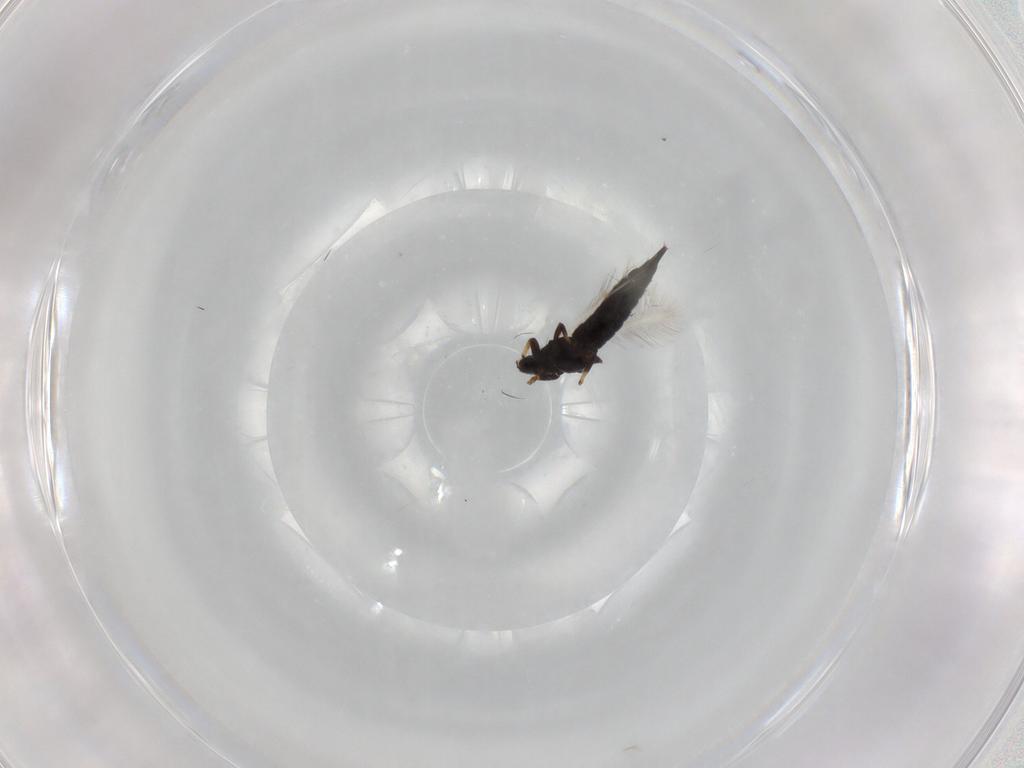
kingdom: Animalia
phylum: Arthropoda
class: Insecta
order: Thysanoptera
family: Phlaeothripidae
